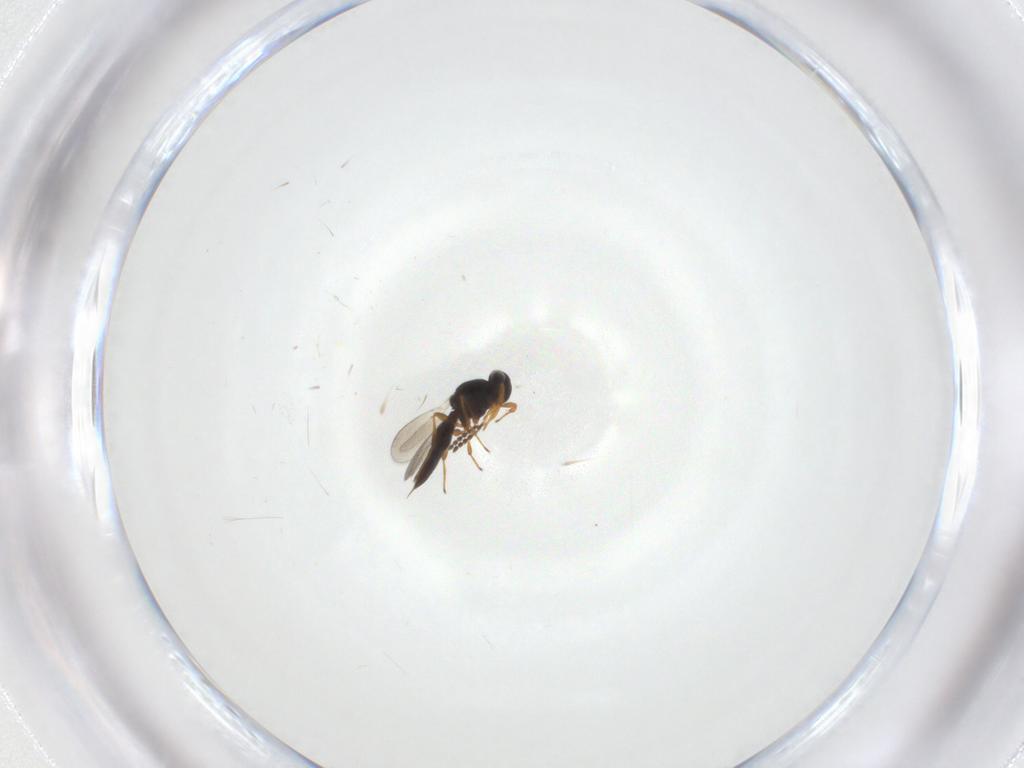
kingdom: Animalia
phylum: Arthropoda
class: Insecta
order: Hymenoptera
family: Platygastridae
